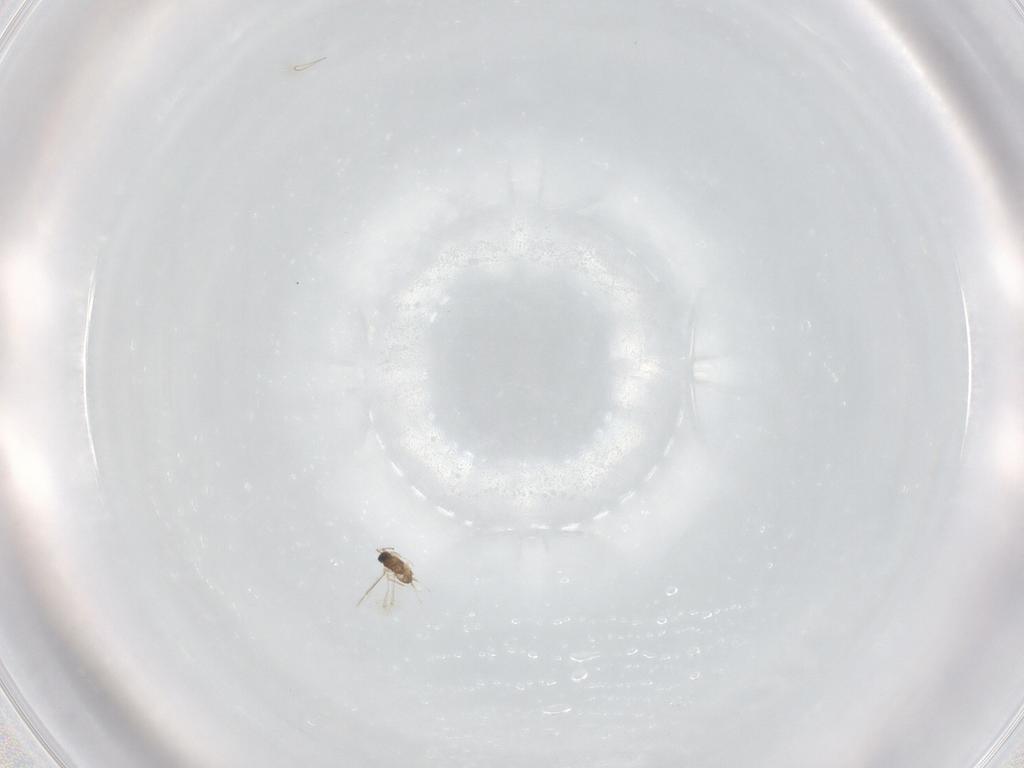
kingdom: Animalia
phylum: Arthropoda
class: Insecta
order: Hymenoptera
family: Mymaridae
